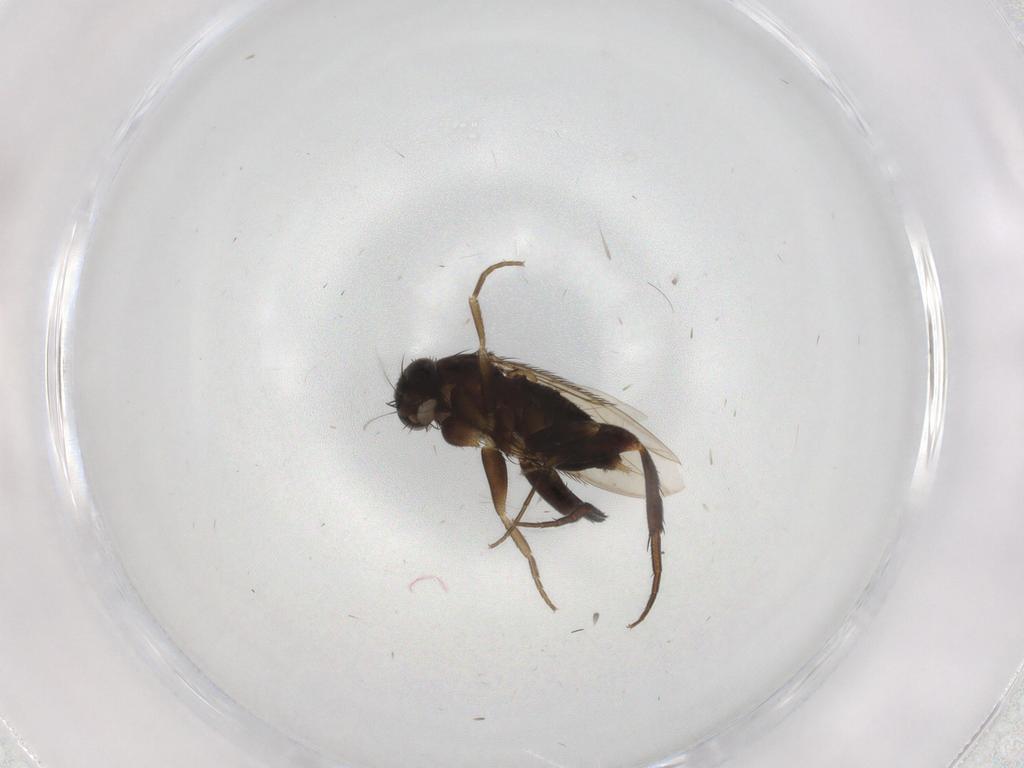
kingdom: Animalia
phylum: Arthropoda
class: Insecta
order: Diptera
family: Phoridae
